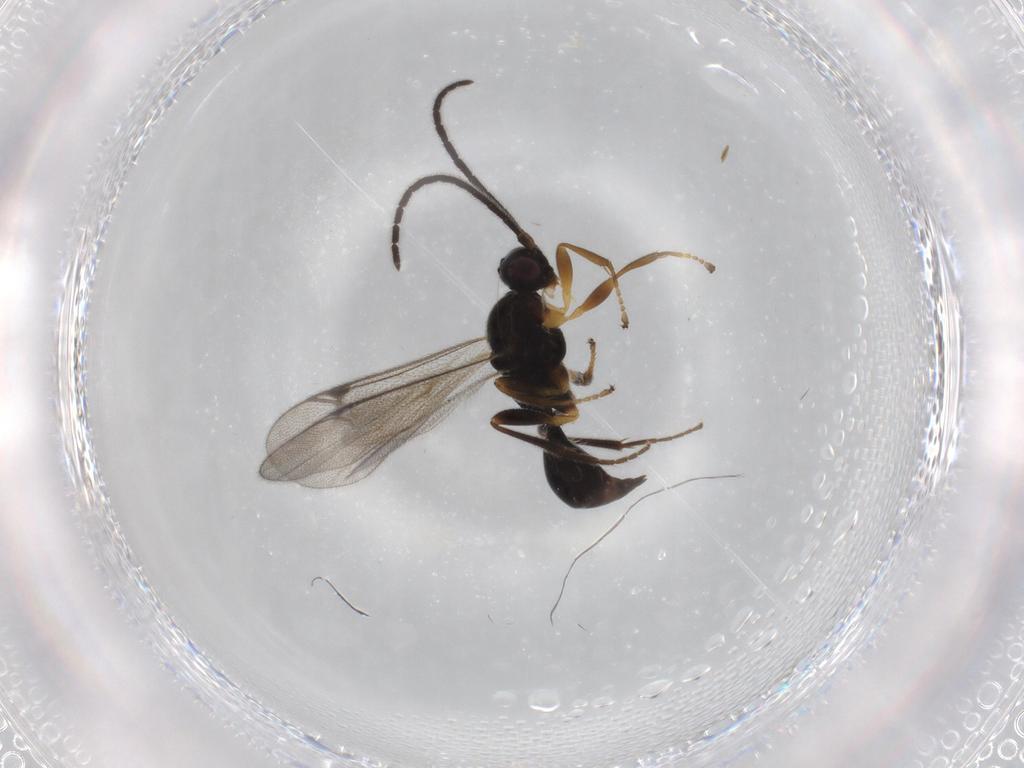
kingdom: Animalia
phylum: Arthropoda
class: Insecta
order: Hymenoptera
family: Proctotrupidae
